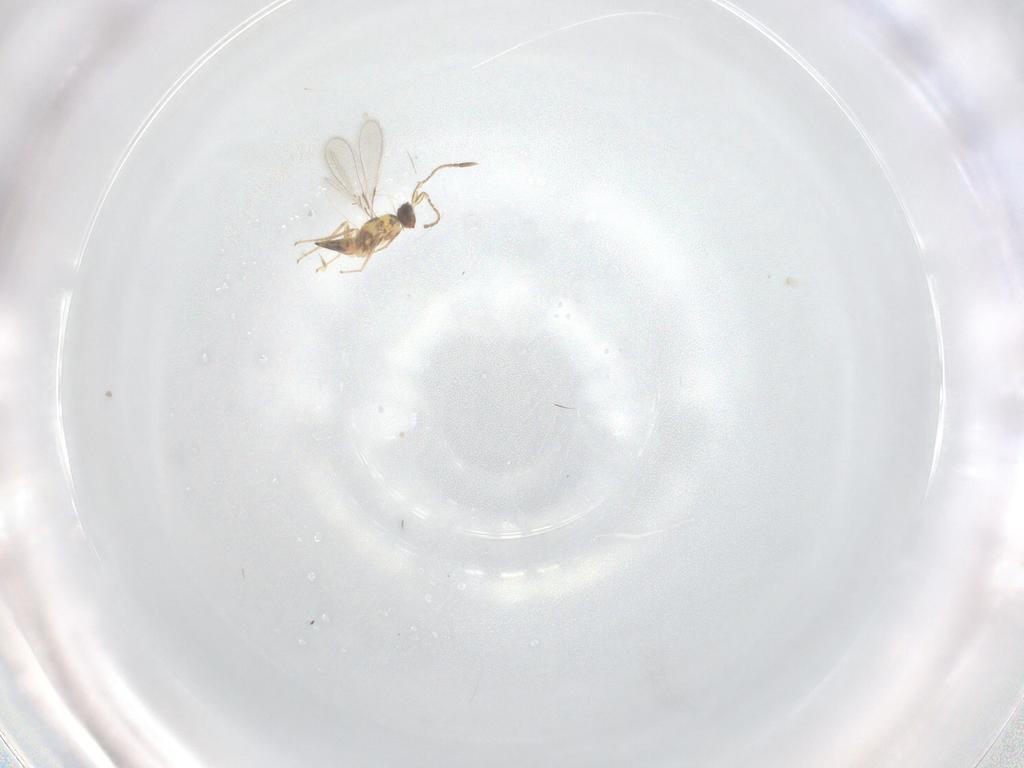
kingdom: Animalia
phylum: Arthropoda
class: Insecta
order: Hymenoptera
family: Mymaridae
